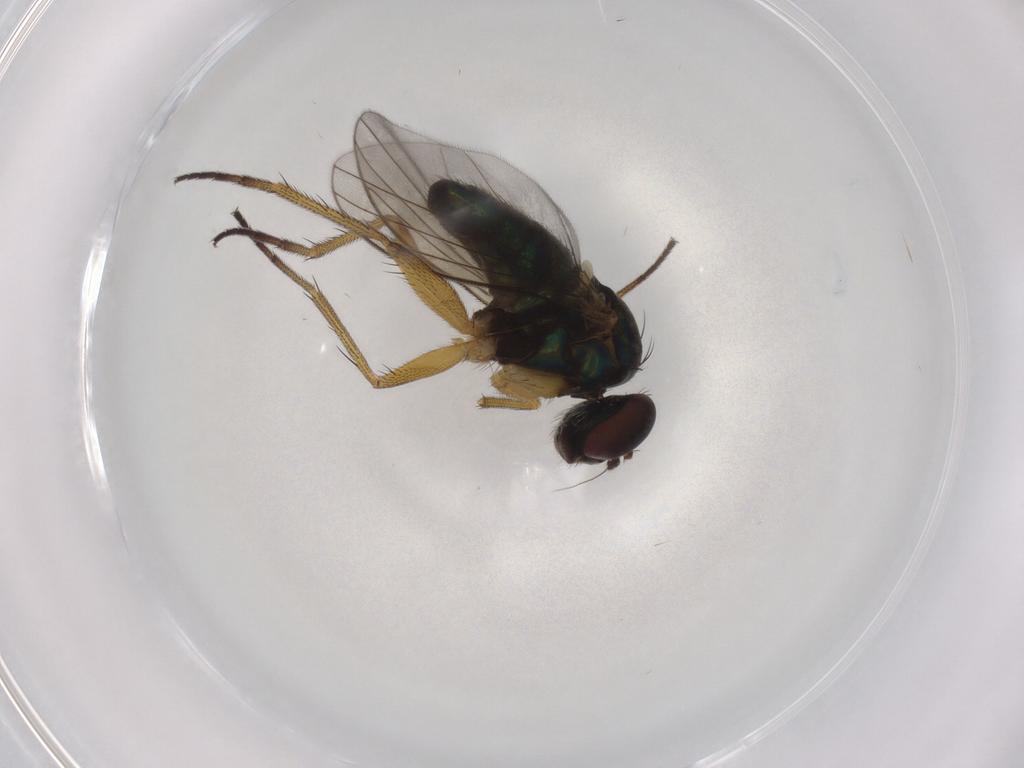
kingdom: Animalia
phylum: Arthropoda
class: Insecta
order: Diptera
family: Dolichopodidae
